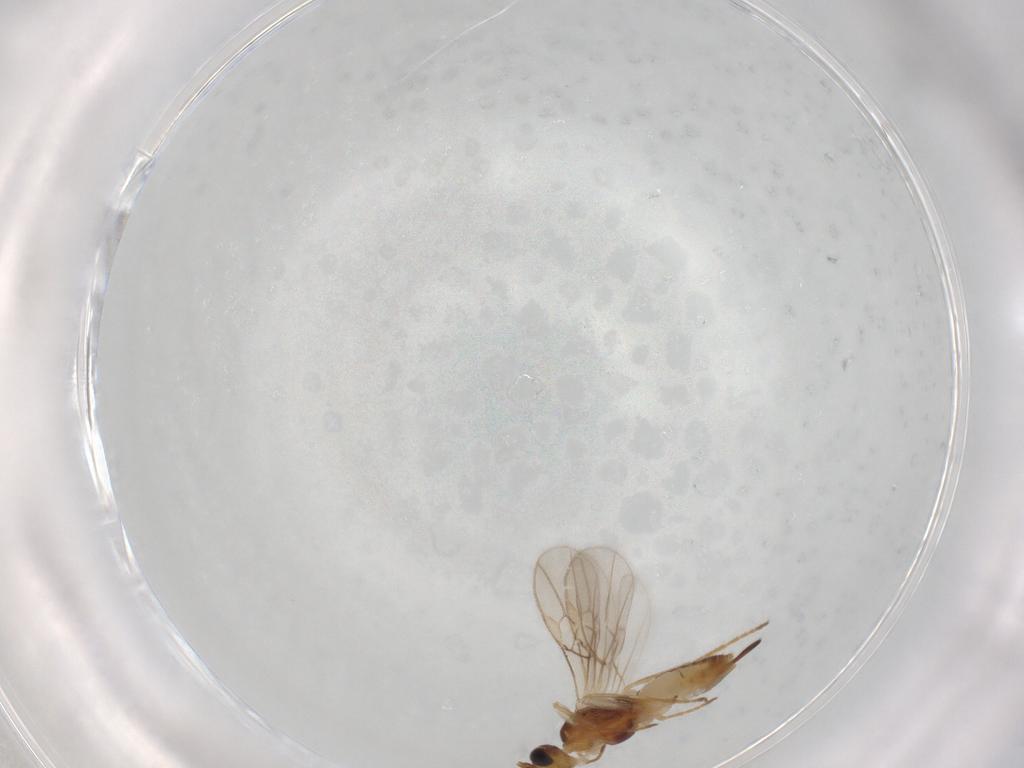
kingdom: Animalia
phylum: Arthropoda
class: Insecta
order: Hymenoptera
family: Braconidae
